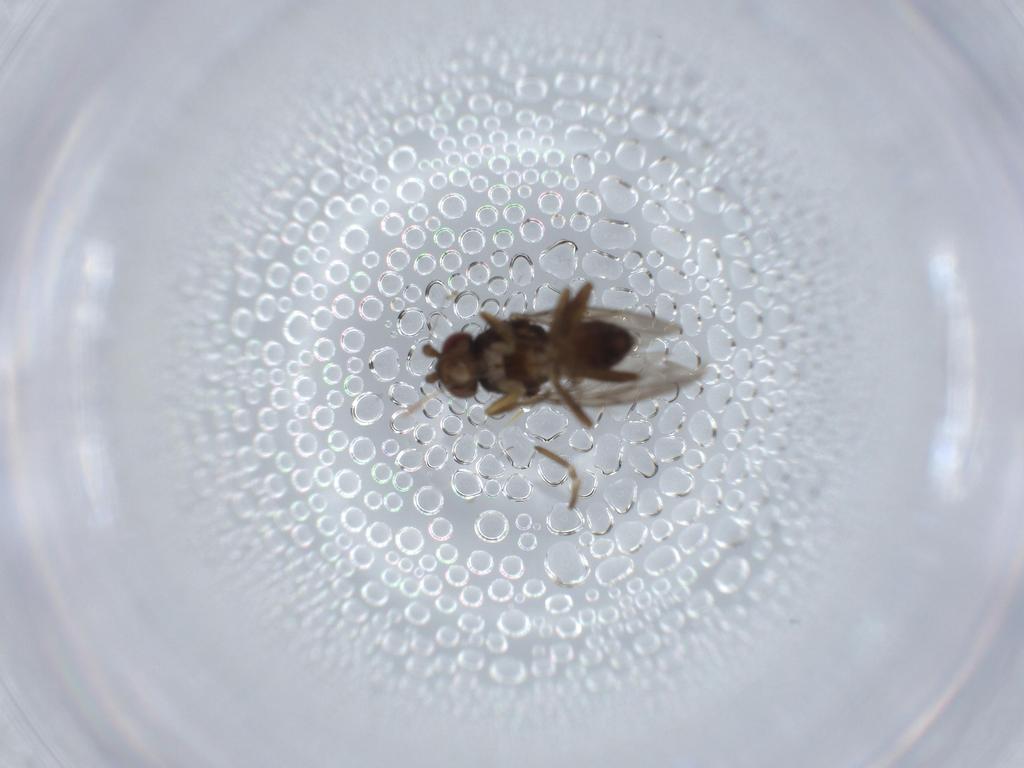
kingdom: Animalia
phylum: Arthropoda
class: Insecta
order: Diptera
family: Sphaeroceridae
